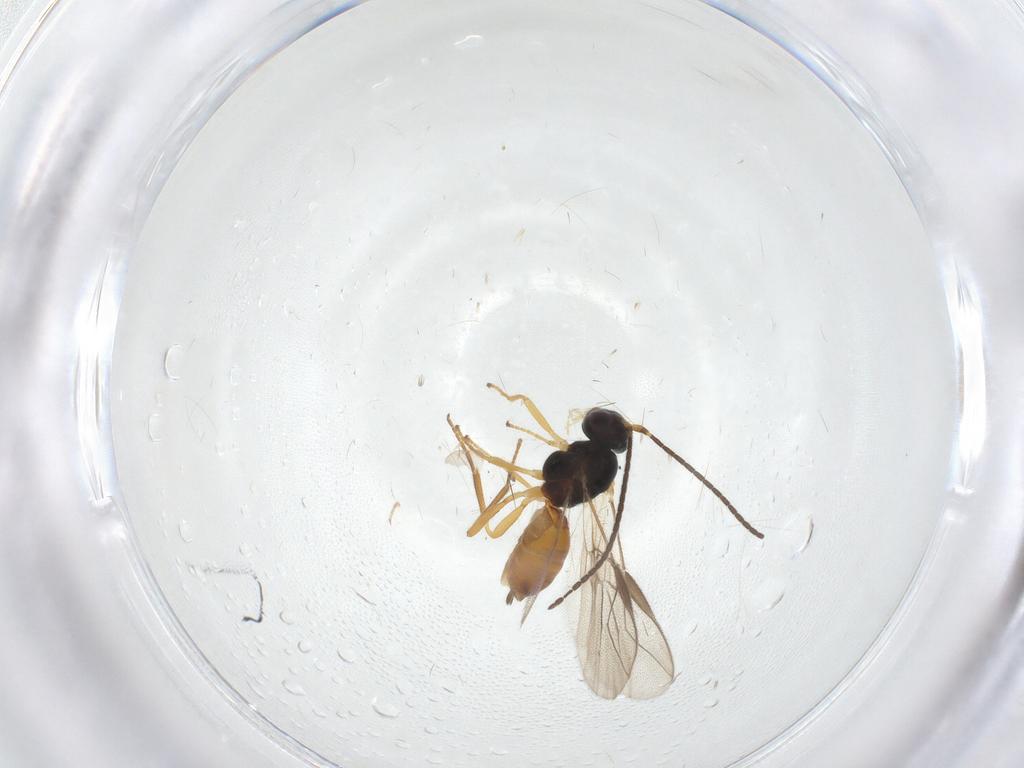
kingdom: Animalia
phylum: Arthropoda
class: Insecta
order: Hymenoptera
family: Braconidae
